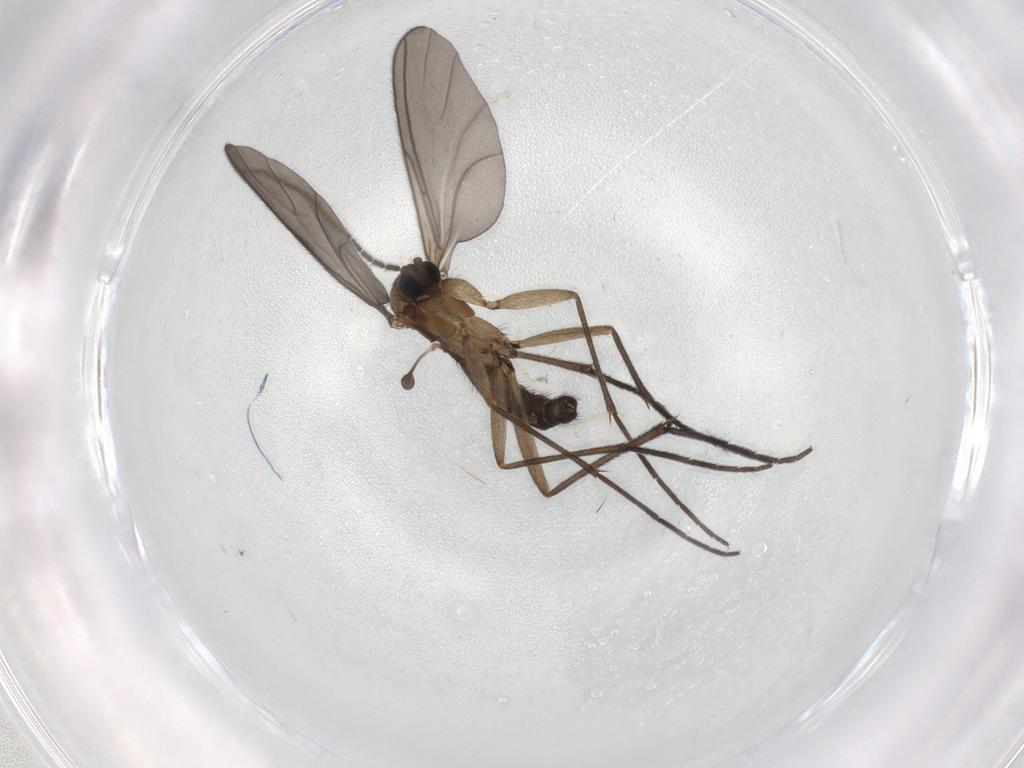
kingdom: Animalia
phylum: Arthropoda
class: Insecta
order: Diptera
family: Sciaridae
